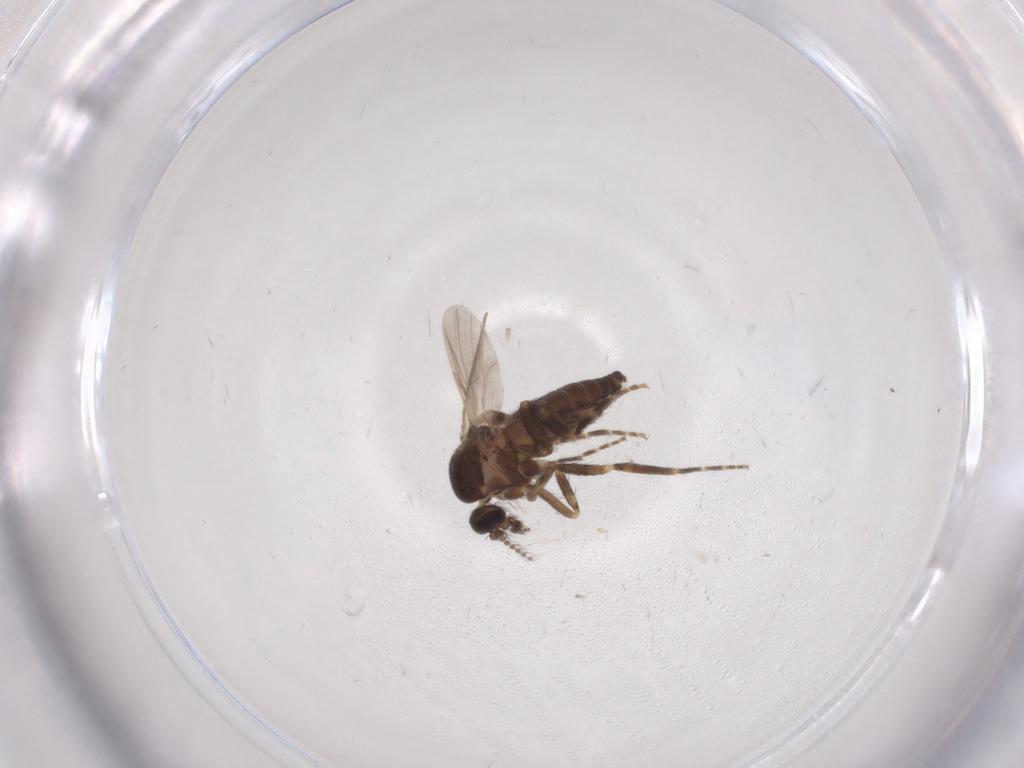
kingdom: Animalia
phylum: Arthropoda
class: Insecta
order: Diptera
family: Ceratopogonidae
